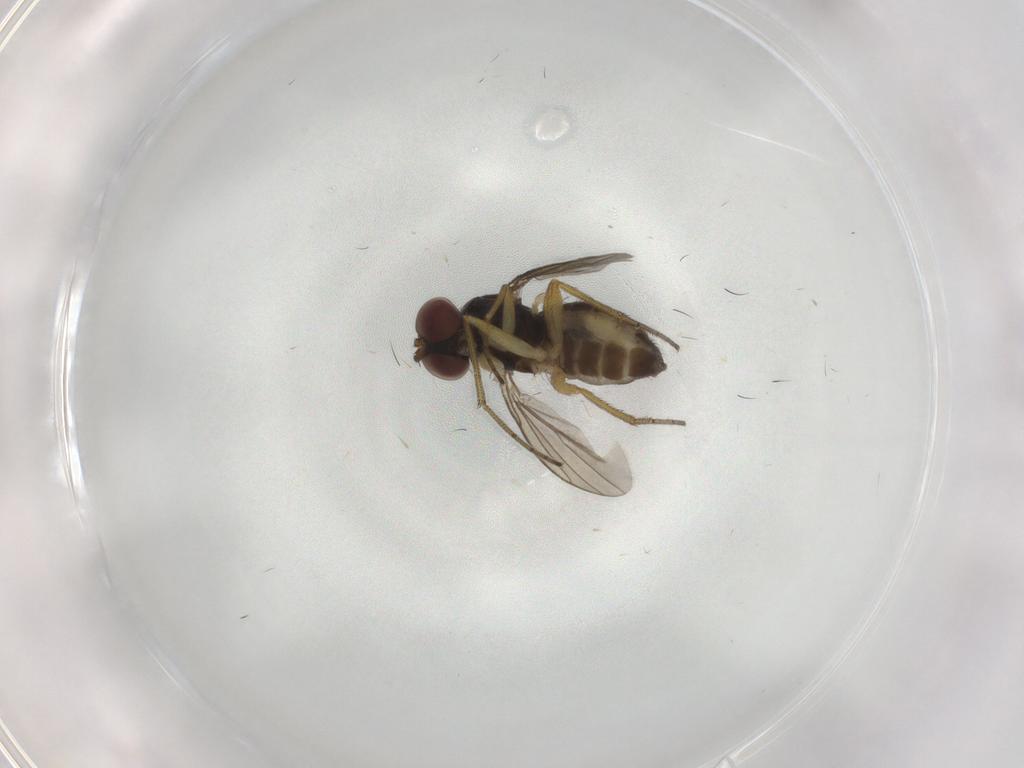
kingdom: Animalia
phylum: Arthropoda
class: Insecta
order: Diptera
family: Dolichopodidae
